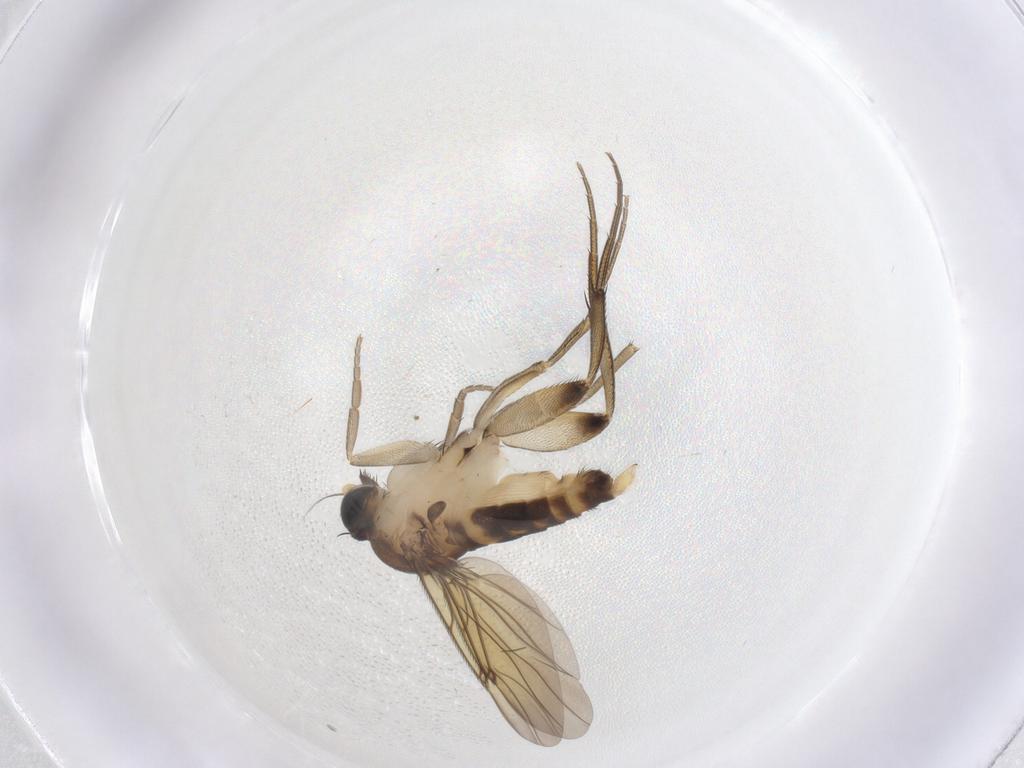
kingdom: Animalia
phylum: Arthropoda
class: Insecta
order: Diptera
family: Phoridae
